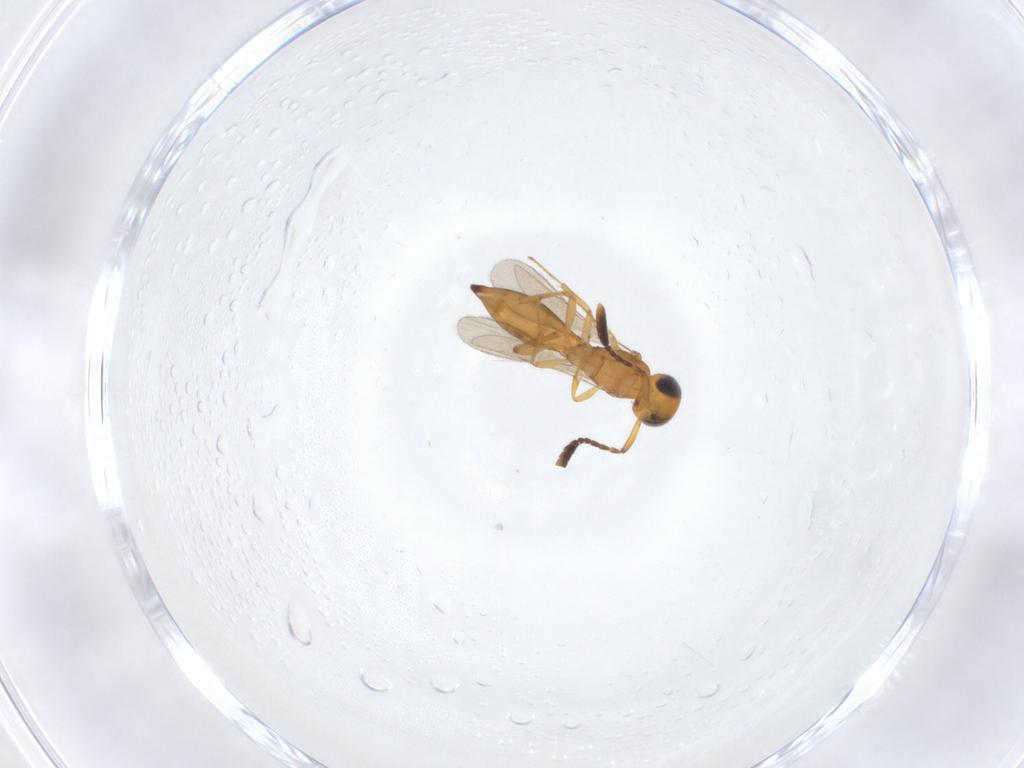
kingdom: Animalia
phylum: Arthropoda
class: Insecta
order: Hymenoptera
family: Scelionidae
